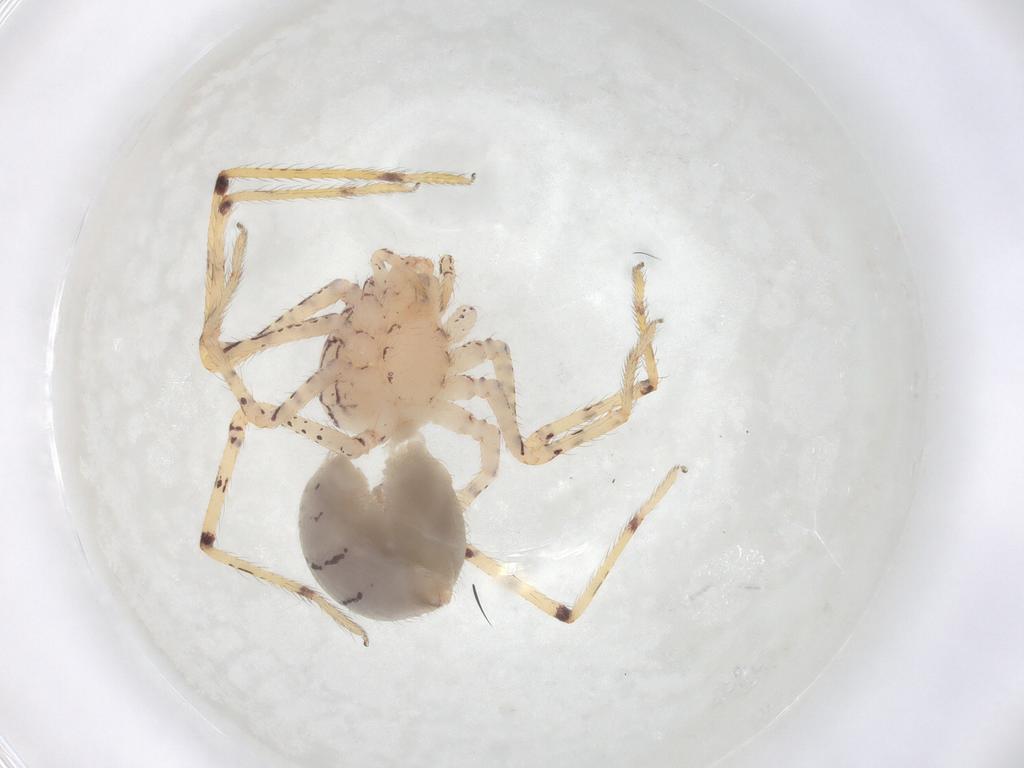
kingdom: Animalia
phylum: Arthropoda
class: Arachnida
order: Araneae
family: Scytodidae
